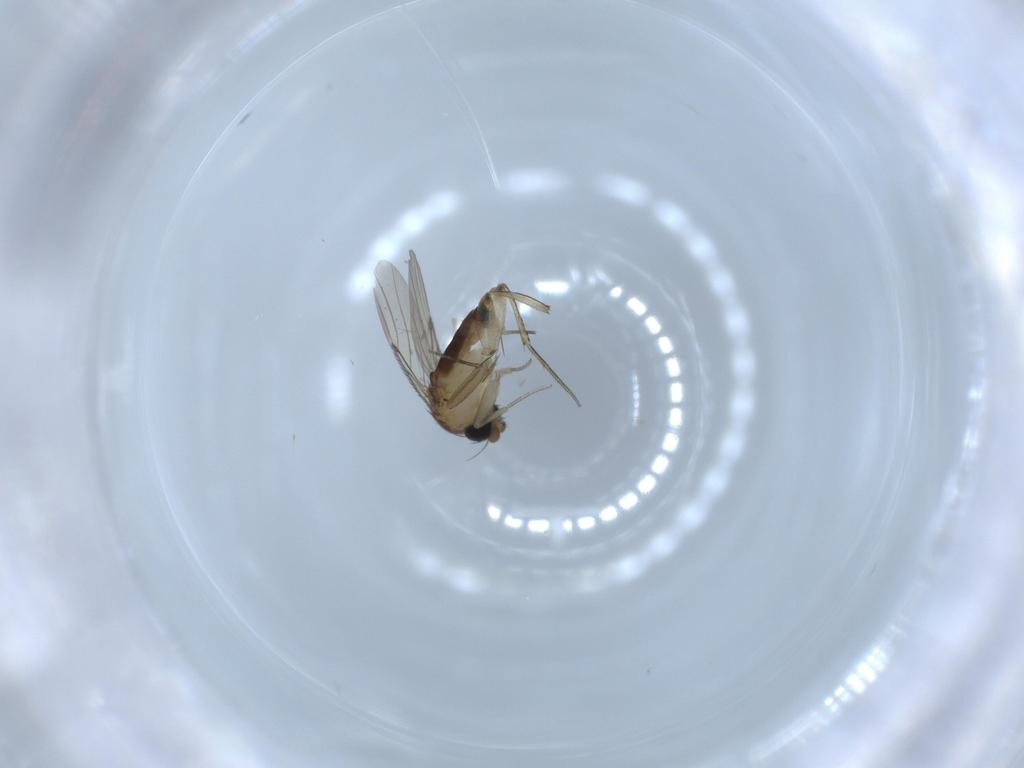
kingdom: Animalia
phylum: Arthropoda
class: Insecta
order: Diptera
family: Phoridae
